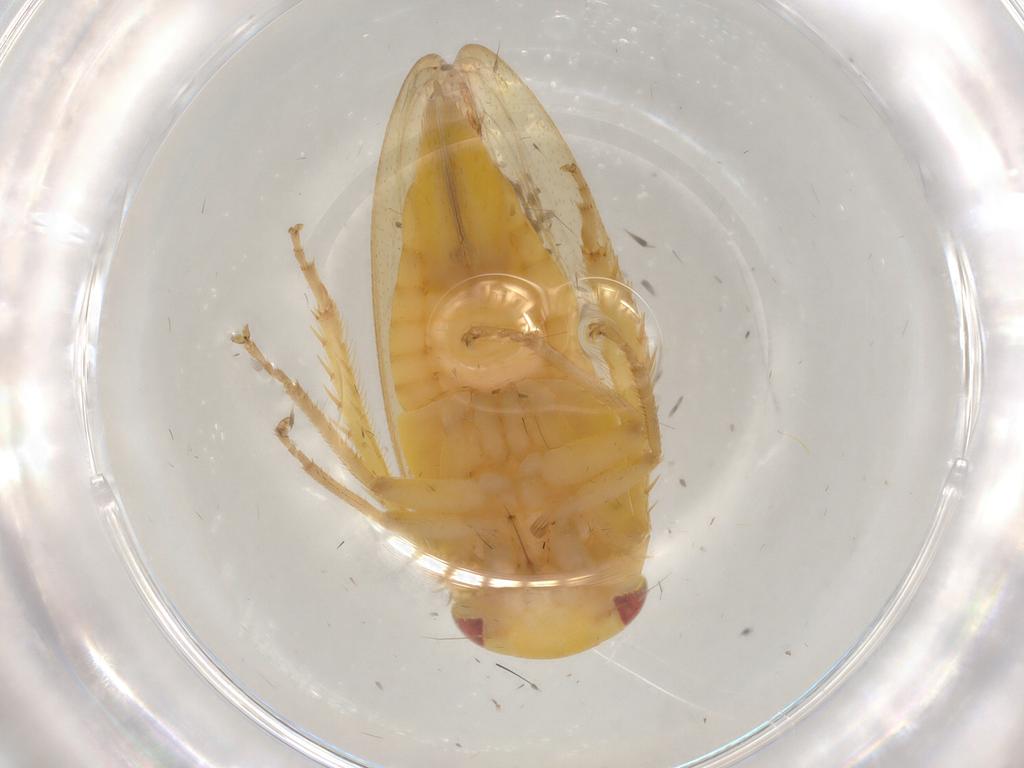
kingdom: Animalia
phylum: Arthropoda
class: Insecta
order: Hemiptera
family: Cicadellidae
